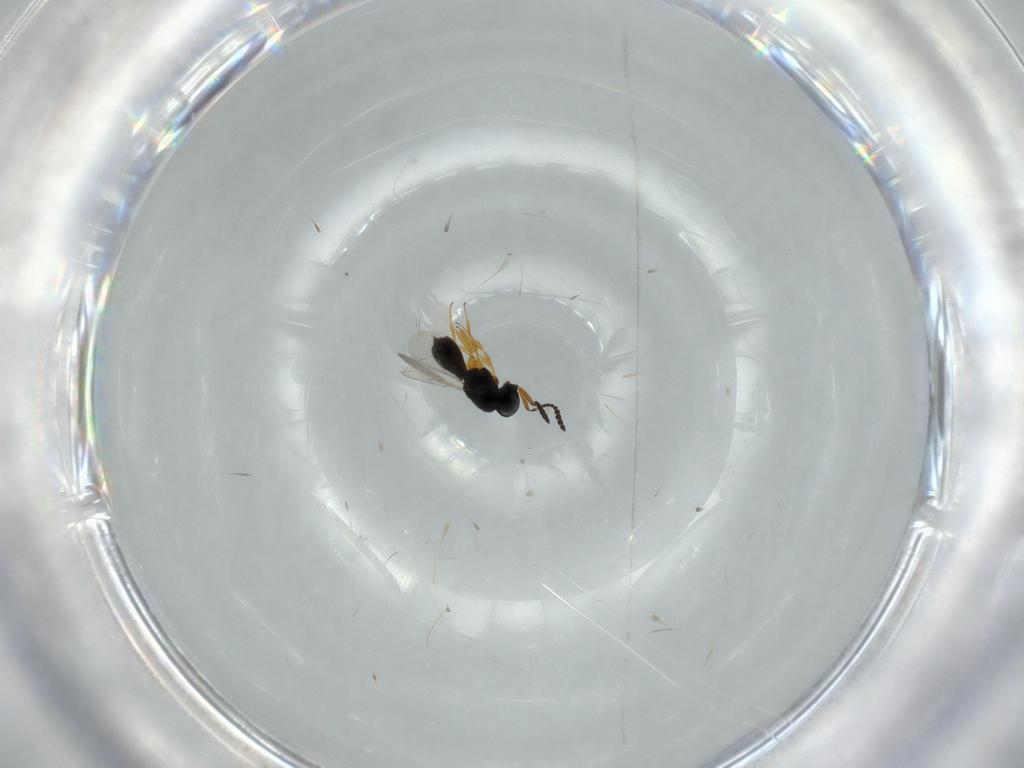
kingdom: Animalia
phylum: Arthropoda
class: Insecta
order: Hymenoptera
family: Scelionidae
